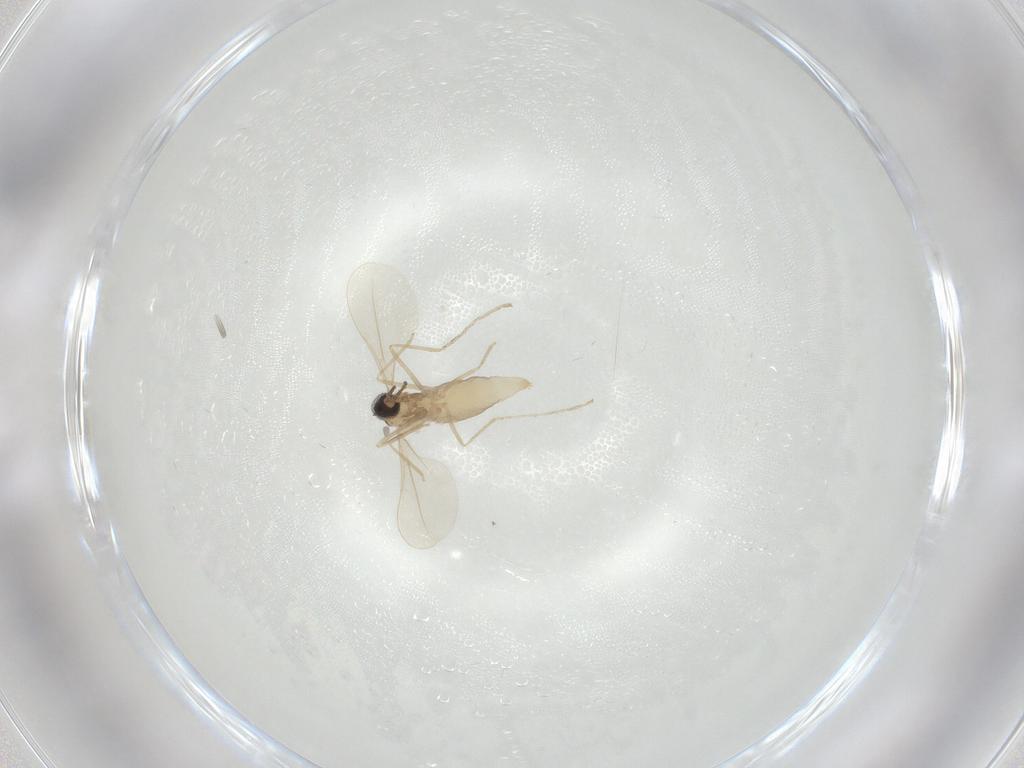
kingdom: Animalia
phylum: Arthropoda
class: Insecta
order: Diptera
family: Cecidomyiidae
